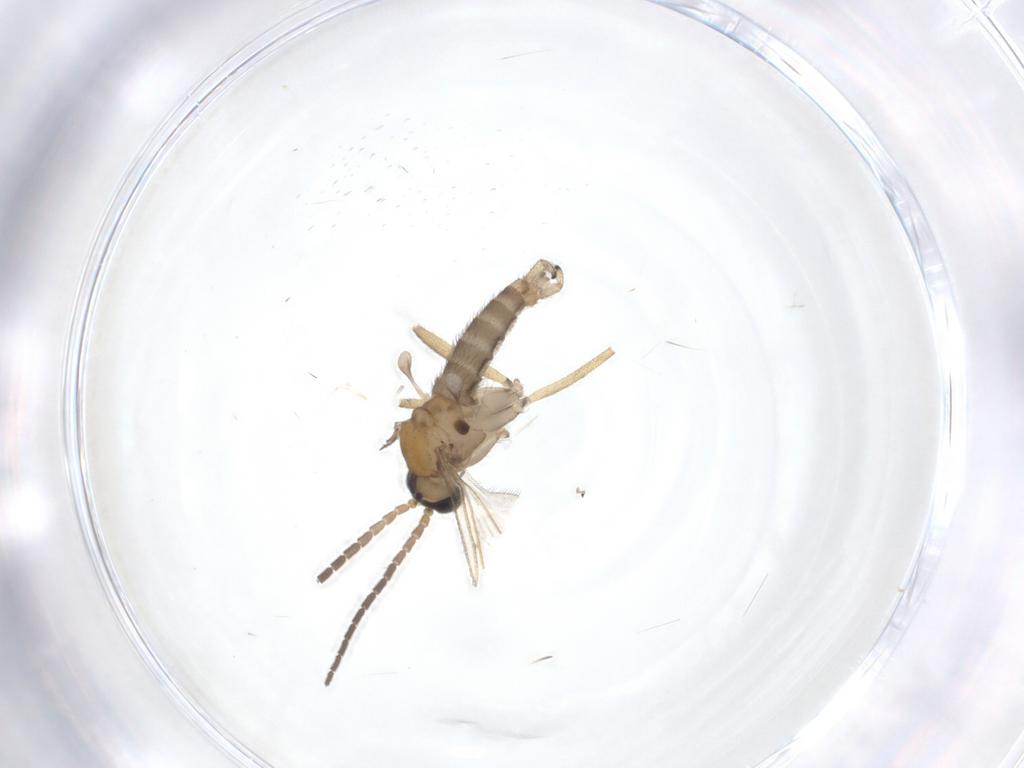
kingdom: Animalia
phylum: Arthropoda
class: Insecta
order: Diptera
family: Sciaridae
